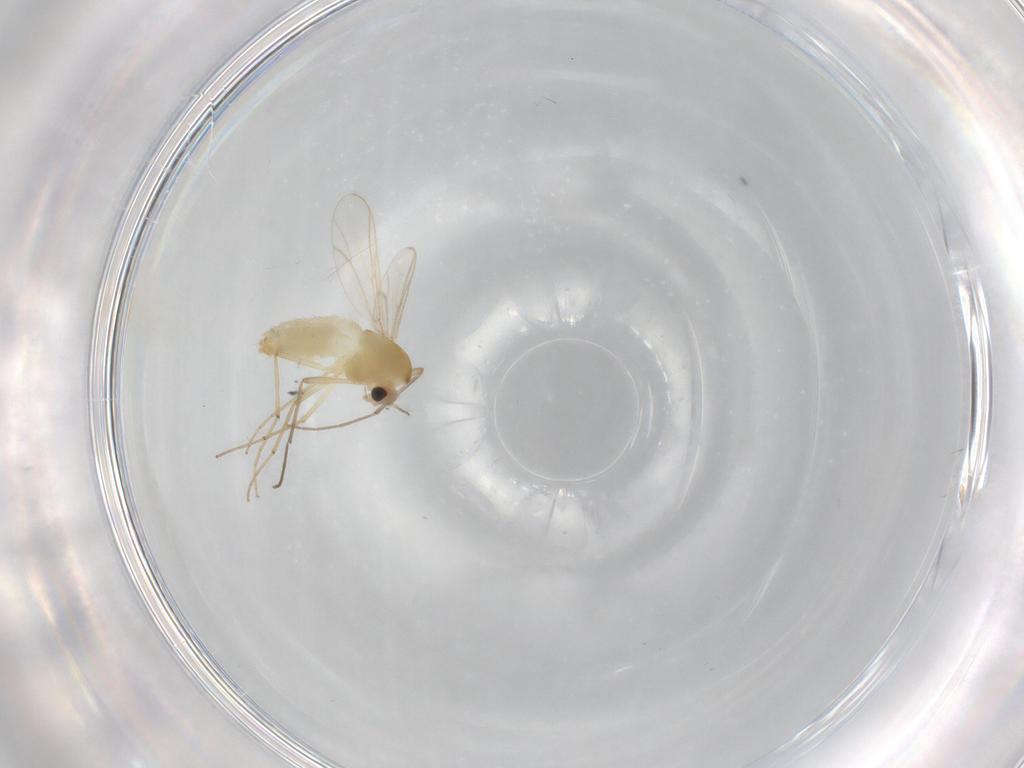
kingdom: Animalia
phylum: Arthropoda
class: Insecta
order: Diptera
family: Chironomidae
